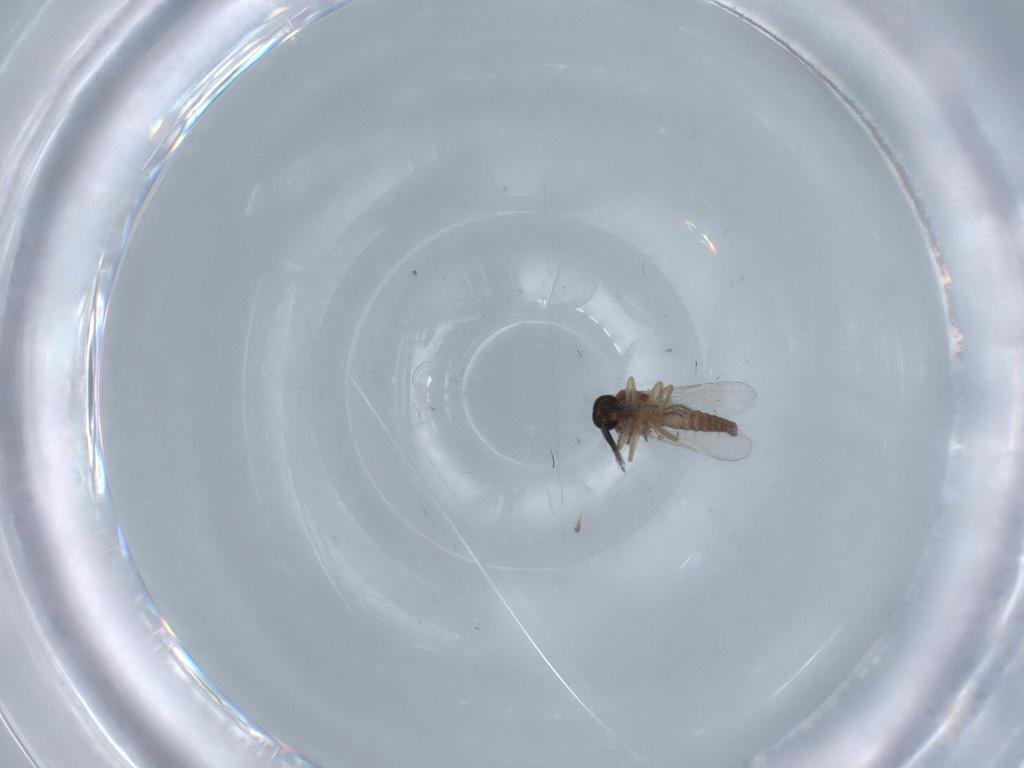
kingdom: Animalia
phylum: Arthropoda
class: Insecta
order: Diptera
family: Ceratopogonidae
